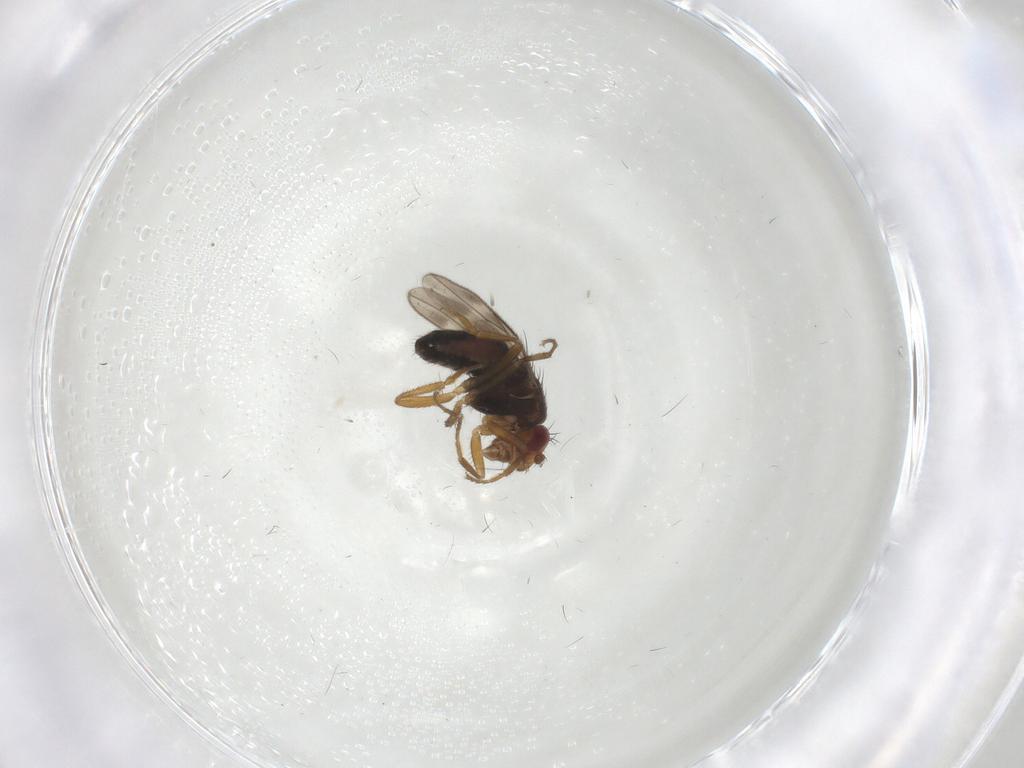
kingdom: Animalia
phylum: Arthropoda
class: Insecta
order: Diptera
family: Sphaeroceridae
